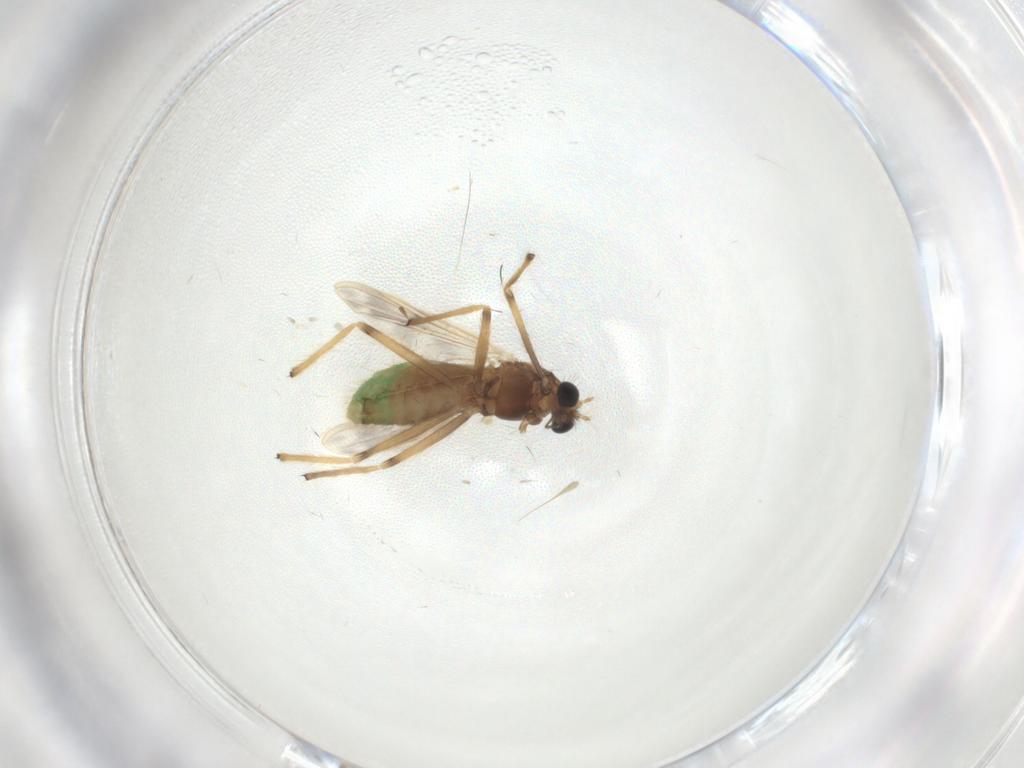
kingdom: Animalia
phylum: Arthropoda
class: Insecta
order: Diptera
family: Chironomidae
